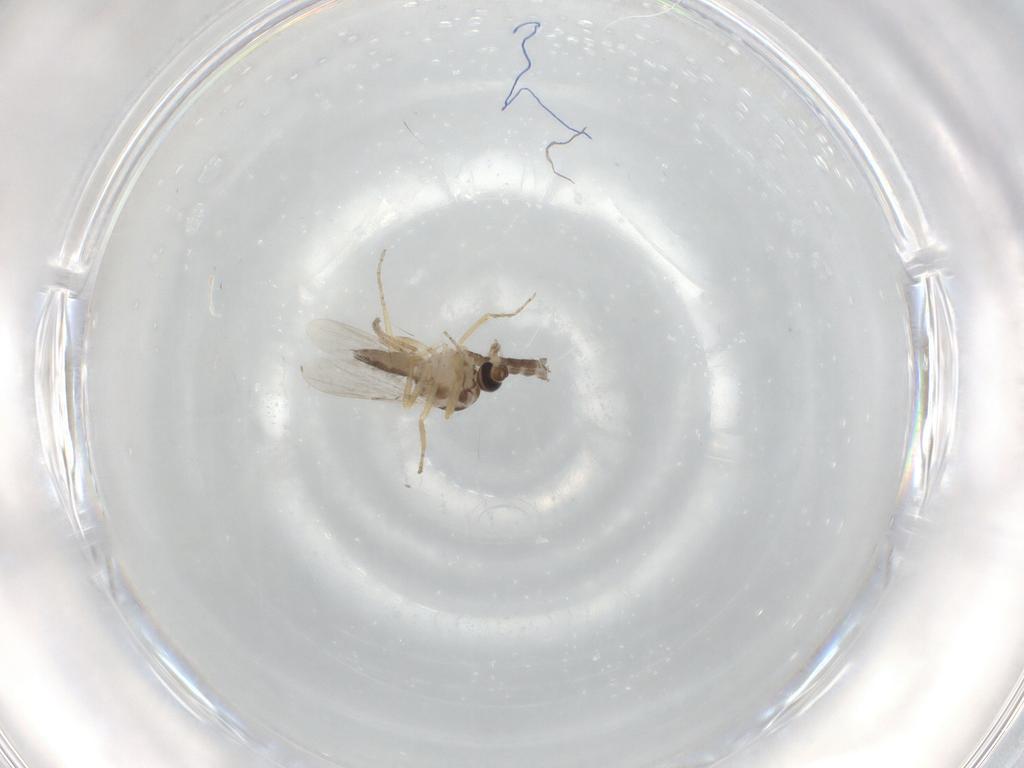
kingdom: Animalia
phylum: Arthropoda
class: Insecta
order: Diptera
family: Ceratopogonidae
